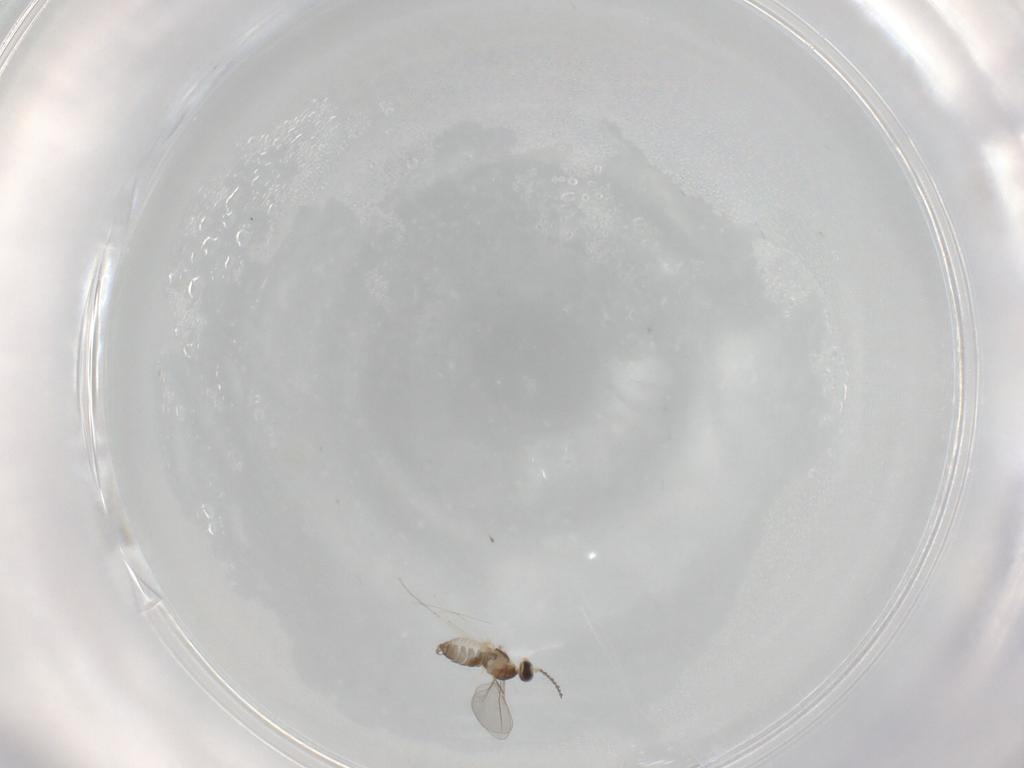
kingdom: Animalia
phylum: Arthropoda
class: Insecta
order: Diptera
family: Cecidomyiidae
